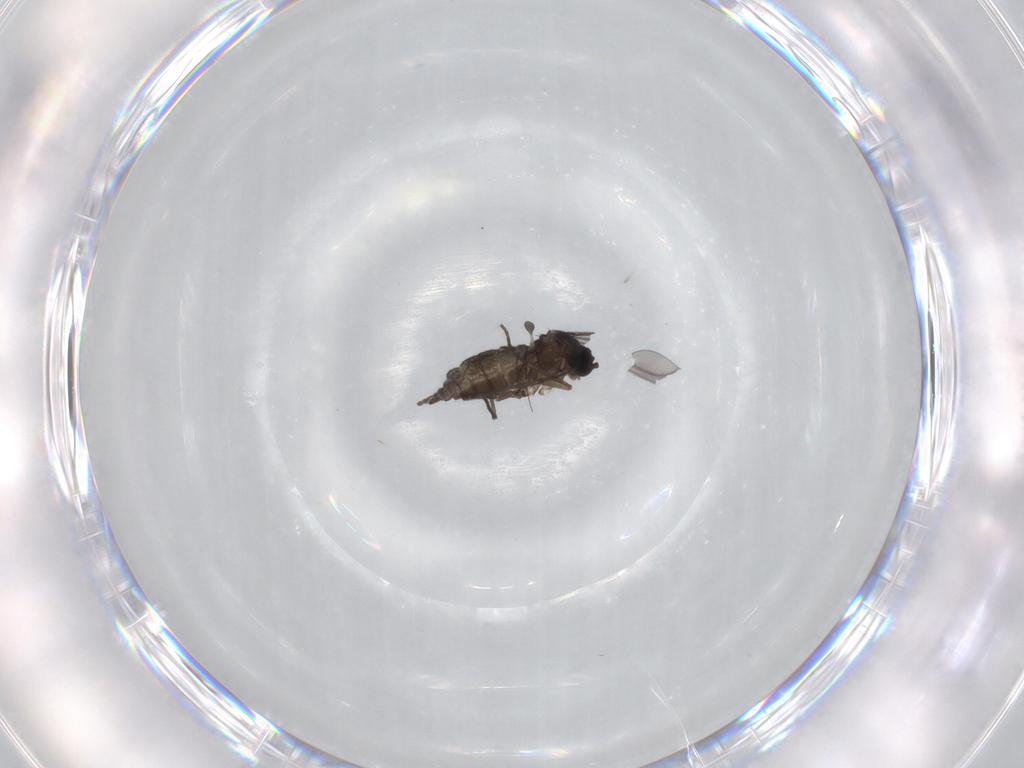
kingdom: Animalia
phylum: Arthropoda
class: Insecta
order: Diptera
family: Sciaridae
